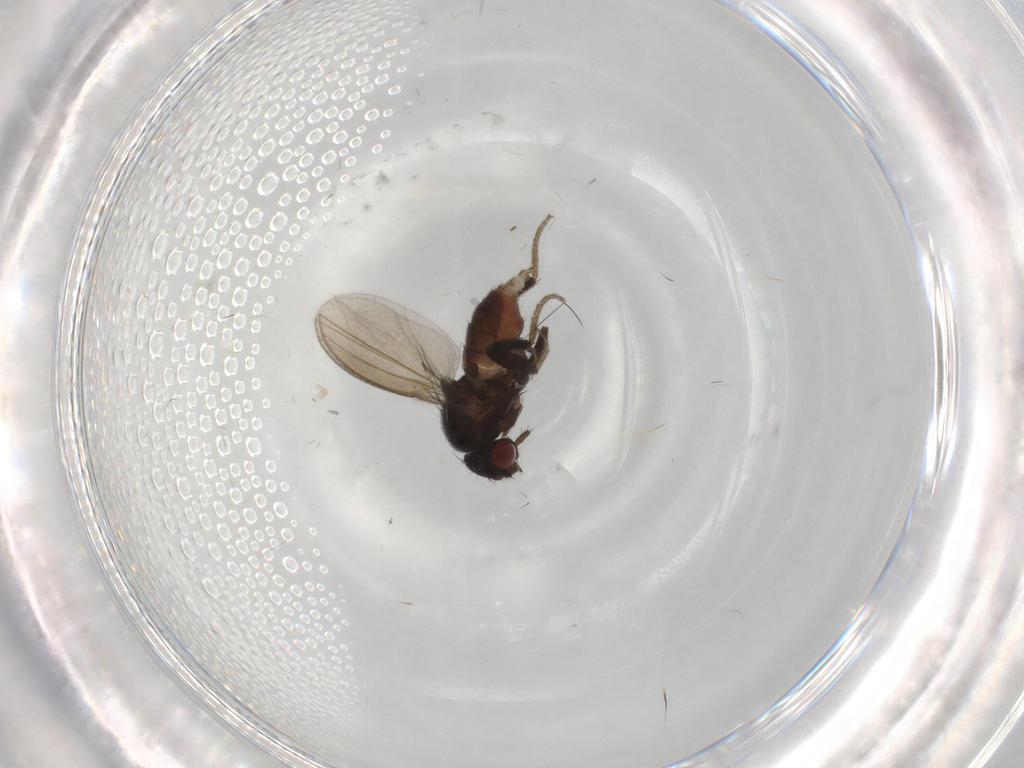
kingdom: Animalia
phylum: Arthropoda
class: Insecta
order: Diptera
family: Milichiidae
